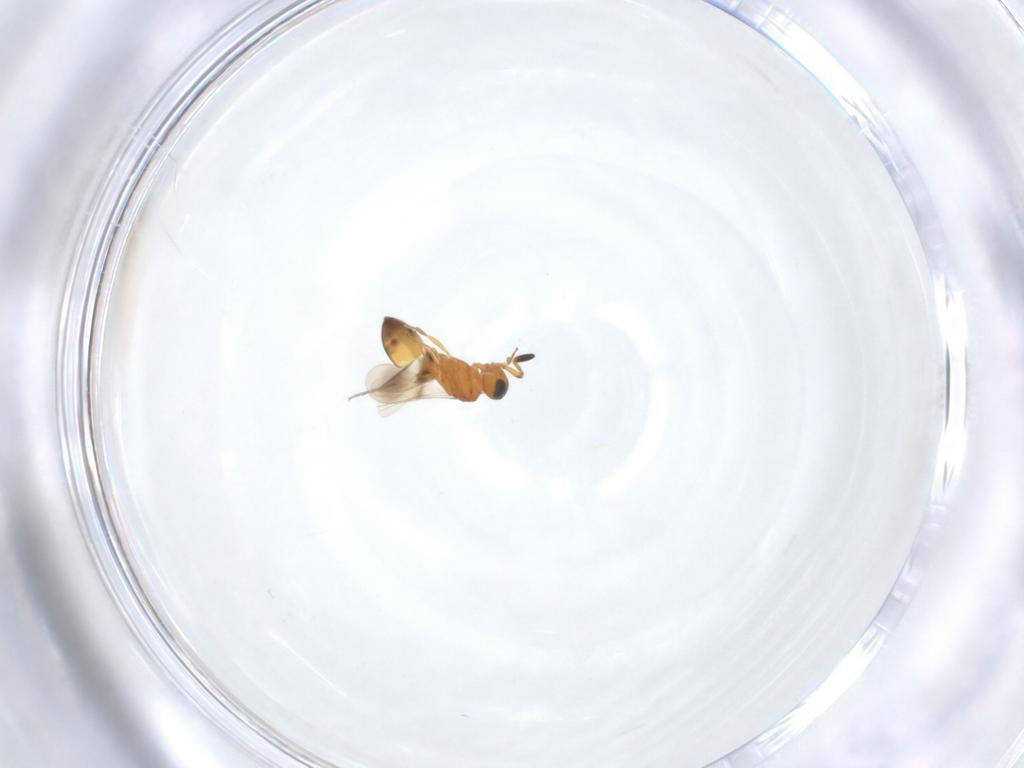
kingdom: Animalia
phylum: Arthropoda
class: Insecta
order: Hymenoptera
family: Scelionidae
